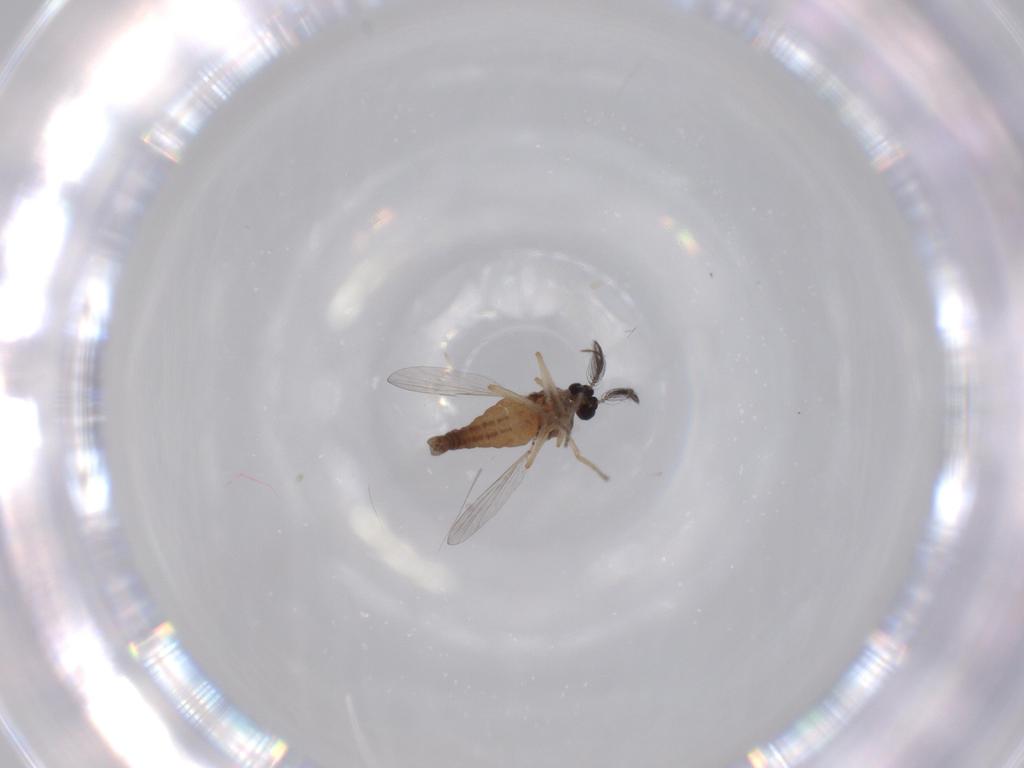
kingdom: Animalia
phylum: Arthropoda
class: Insecta
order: Diptera
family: Ceratopogonidae
